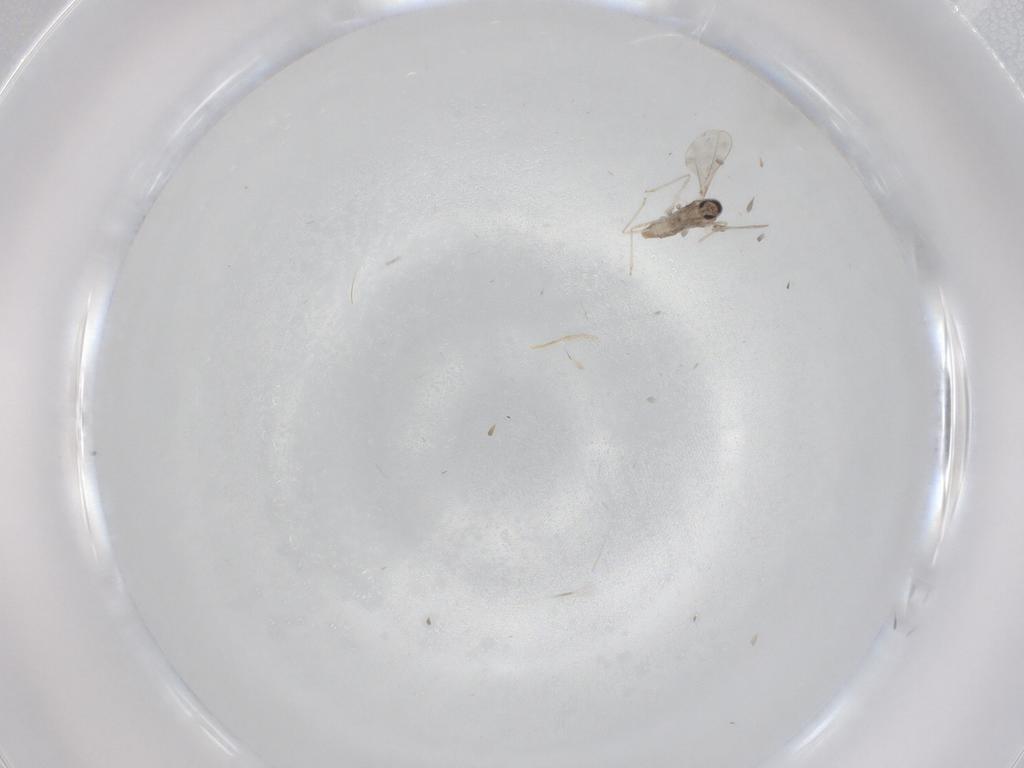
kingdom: Animalia
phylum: Arthropoda
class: Insecta
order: Diptera
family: Cecidomyiidae
